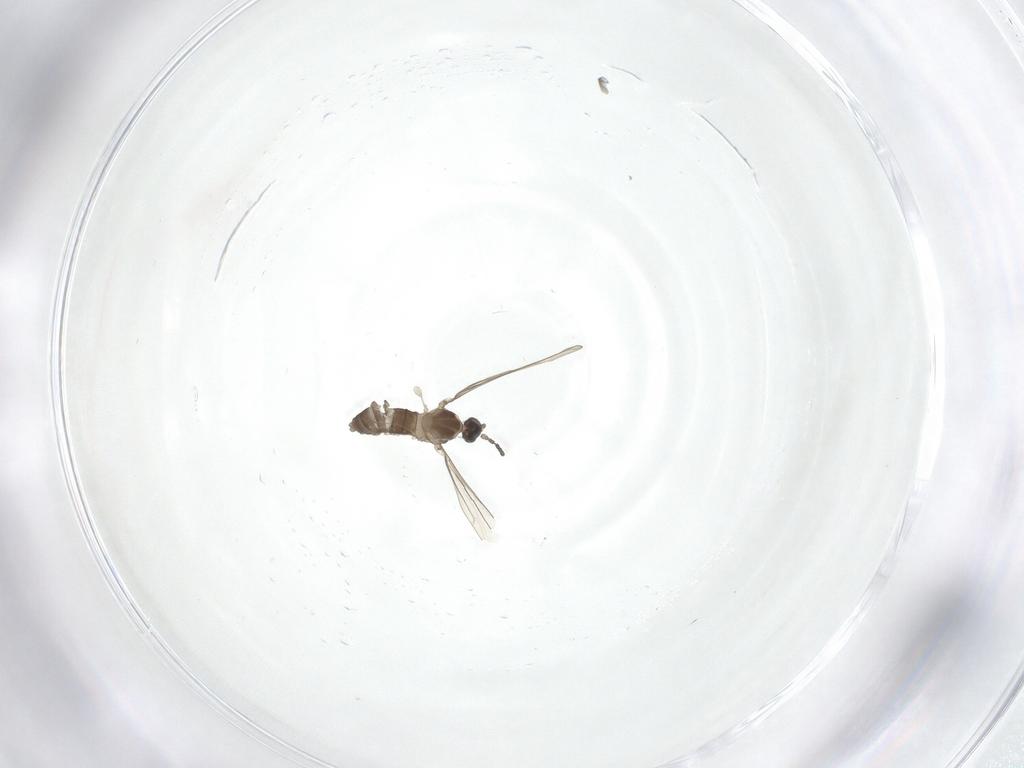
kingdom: Animalia
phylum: Arthropoda
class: Insecta
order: Diptera
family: Cecidomyiidae
